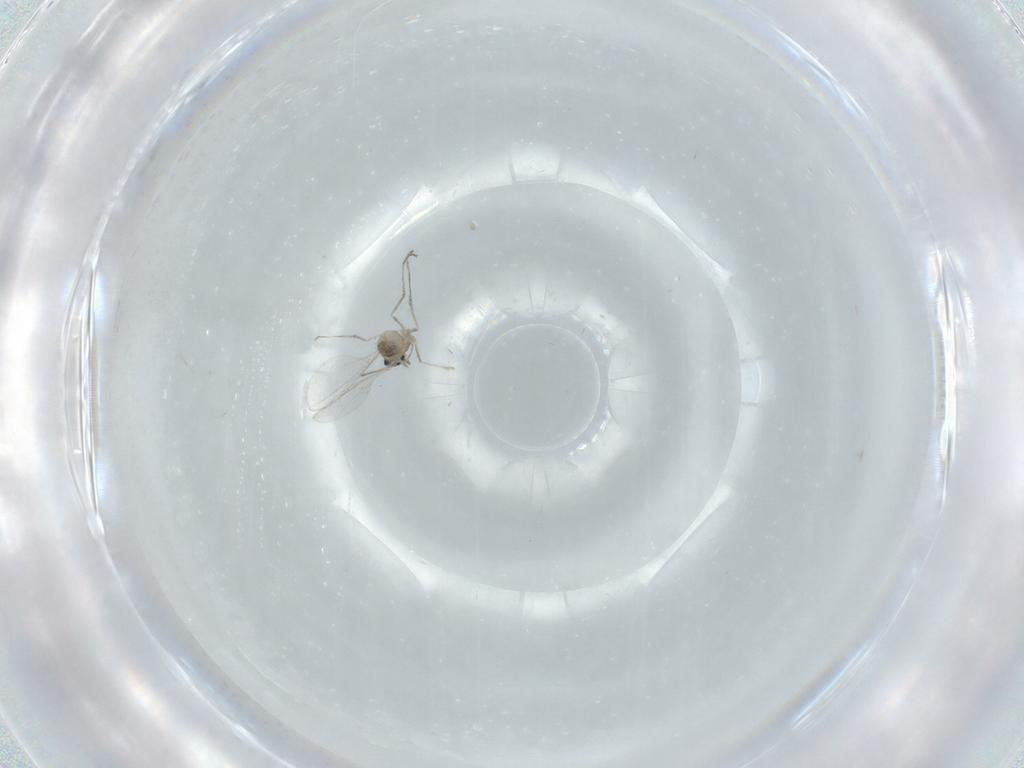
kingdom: Animalia
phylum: Arthropoda
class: Insecta
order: Diptera
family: Cecidomyiidae
